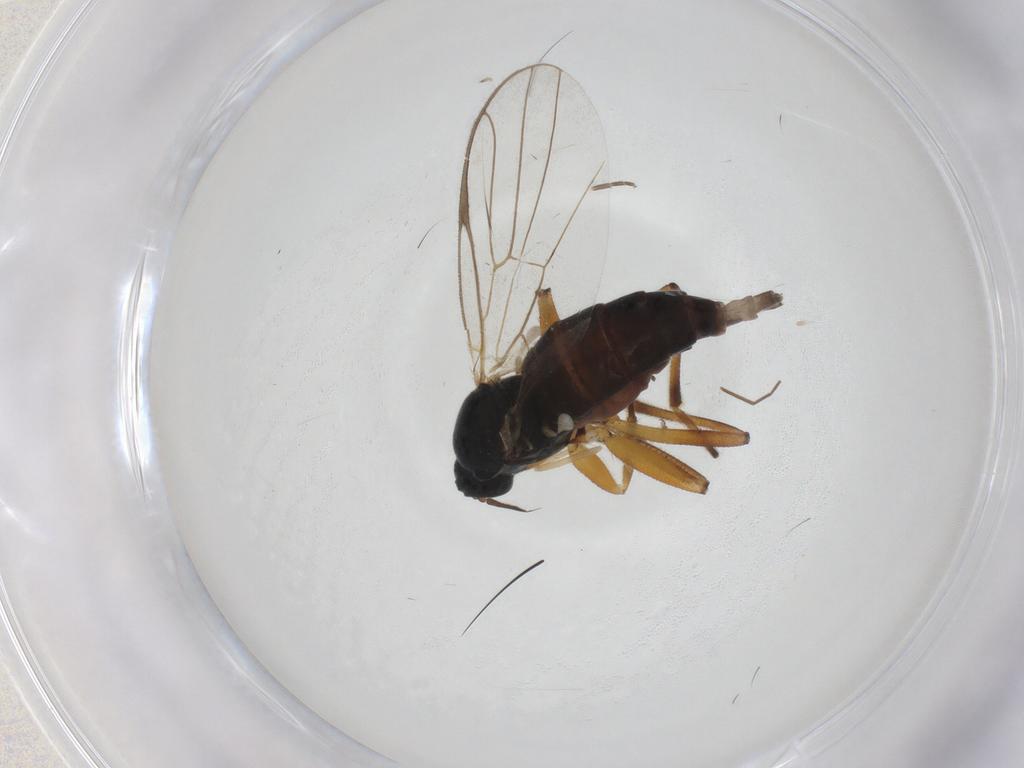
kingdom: Animalia
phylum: Arthropoda
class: Insecta
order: Diptera
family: Hybotidae
